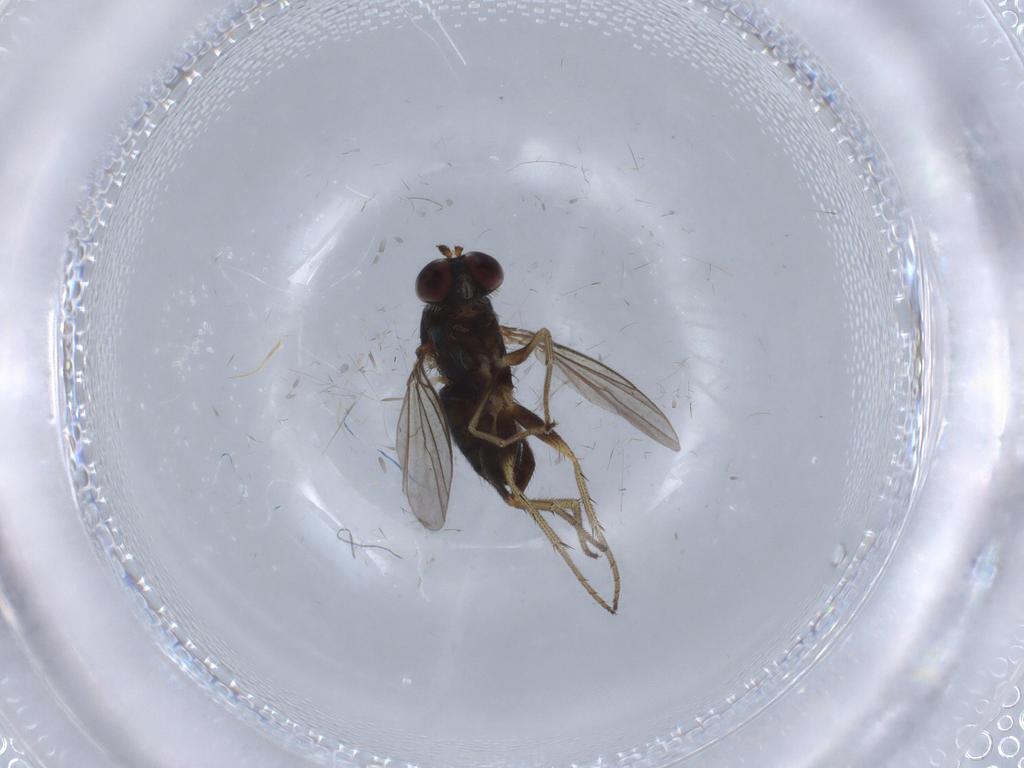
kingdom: Animalia
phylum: Arthropoda
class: Insecta
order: Diptera
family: Dolichopodidae
